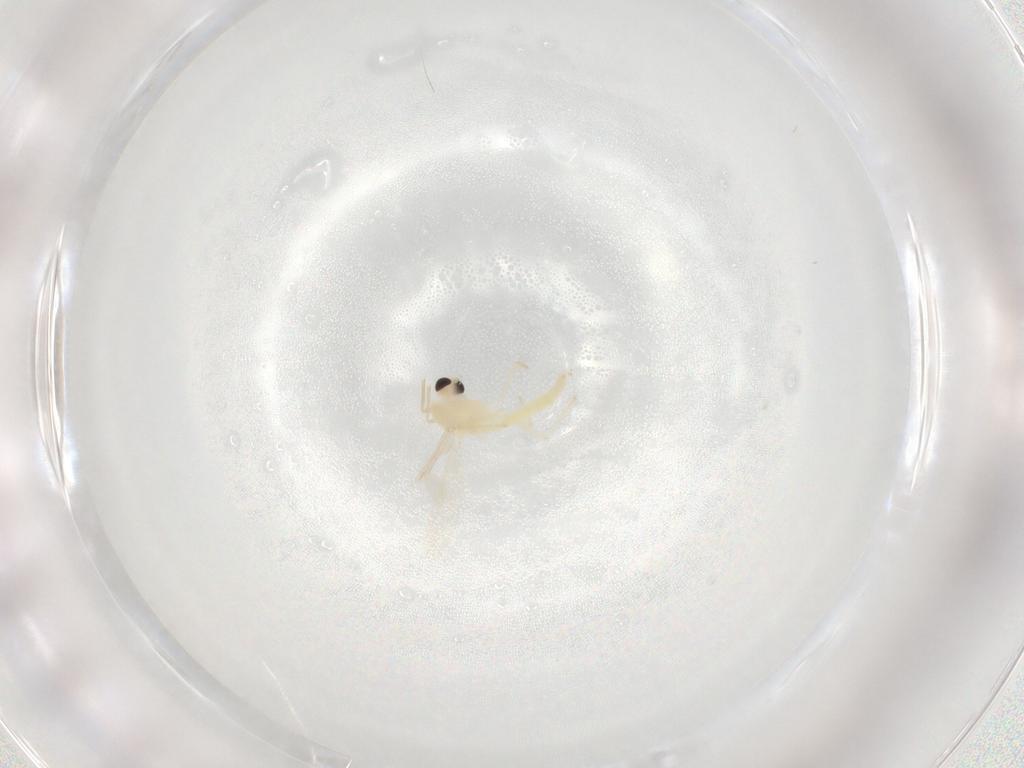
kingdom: Animalia
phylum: Arthropoda
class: Insecta
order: Diptera
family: Chironomidae
